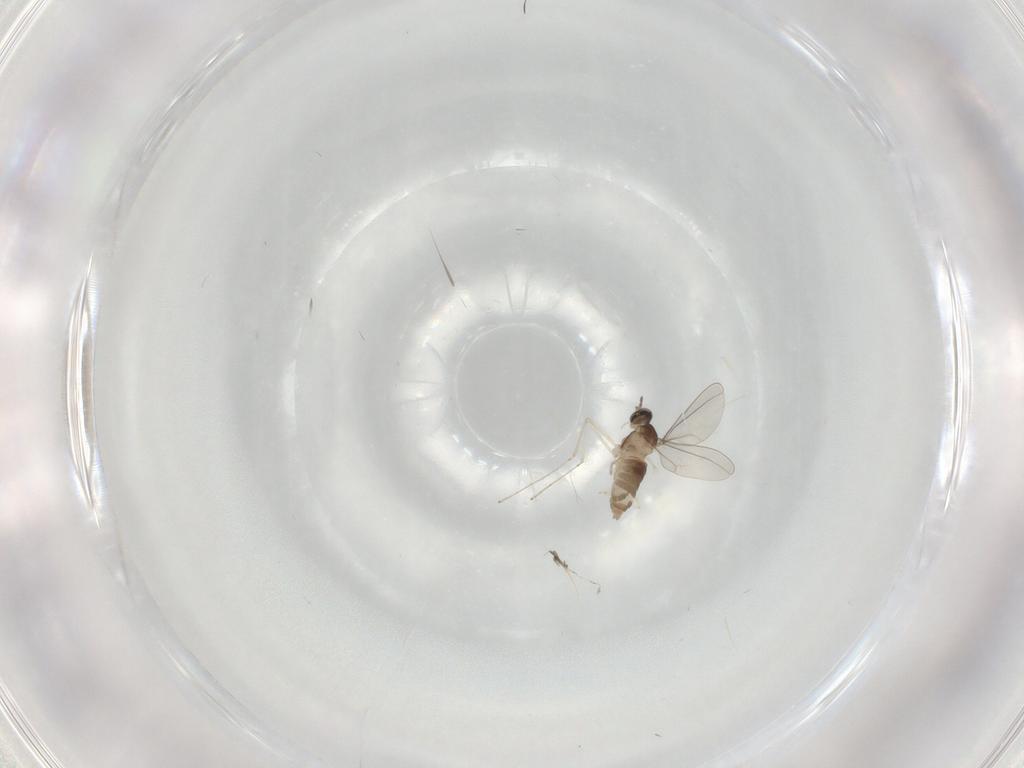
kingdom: Animalia
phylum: Arthropoda
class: Insecta
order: Diptera
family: Cecidomyiidae
